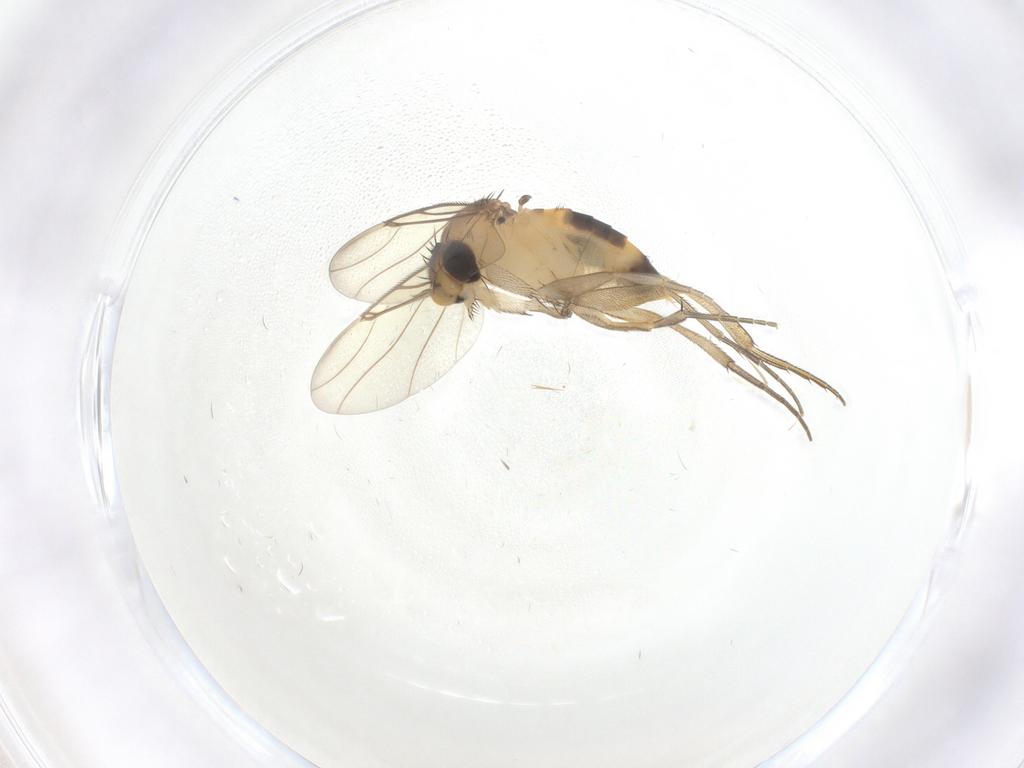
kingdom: Animalia
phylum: Arthropoda
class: Insecta
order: Diptera
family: Phoridae
